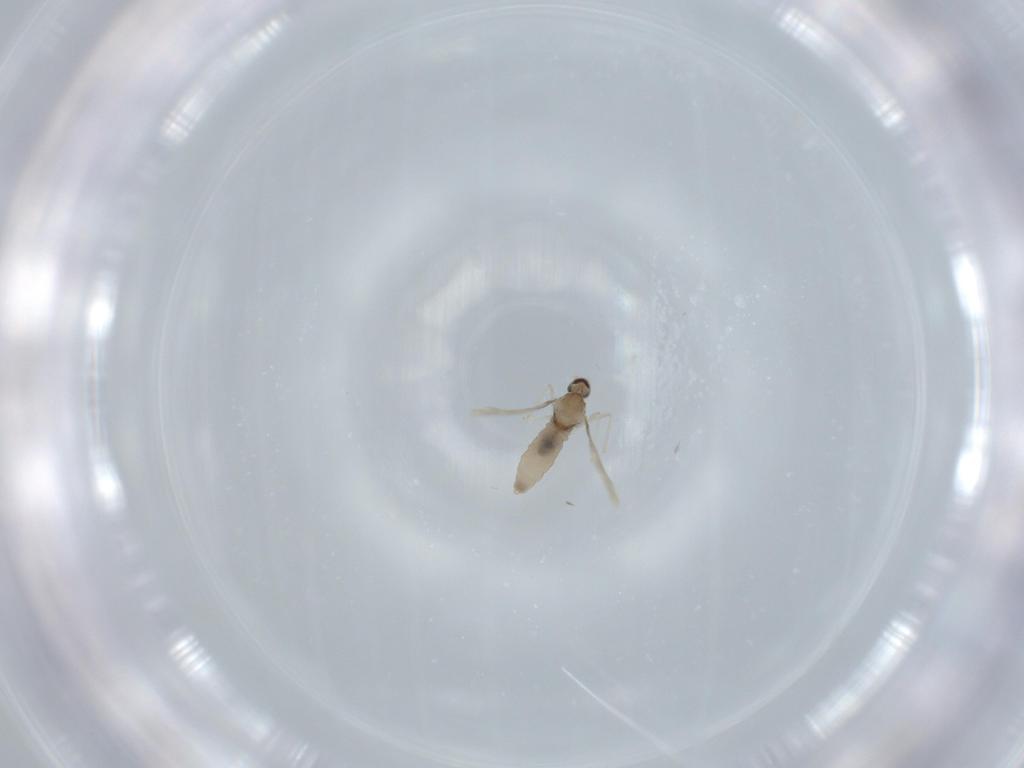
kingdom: Animalia
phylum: Arthropoda
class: Insecta
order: Diptera
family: Cecidomyiidae
